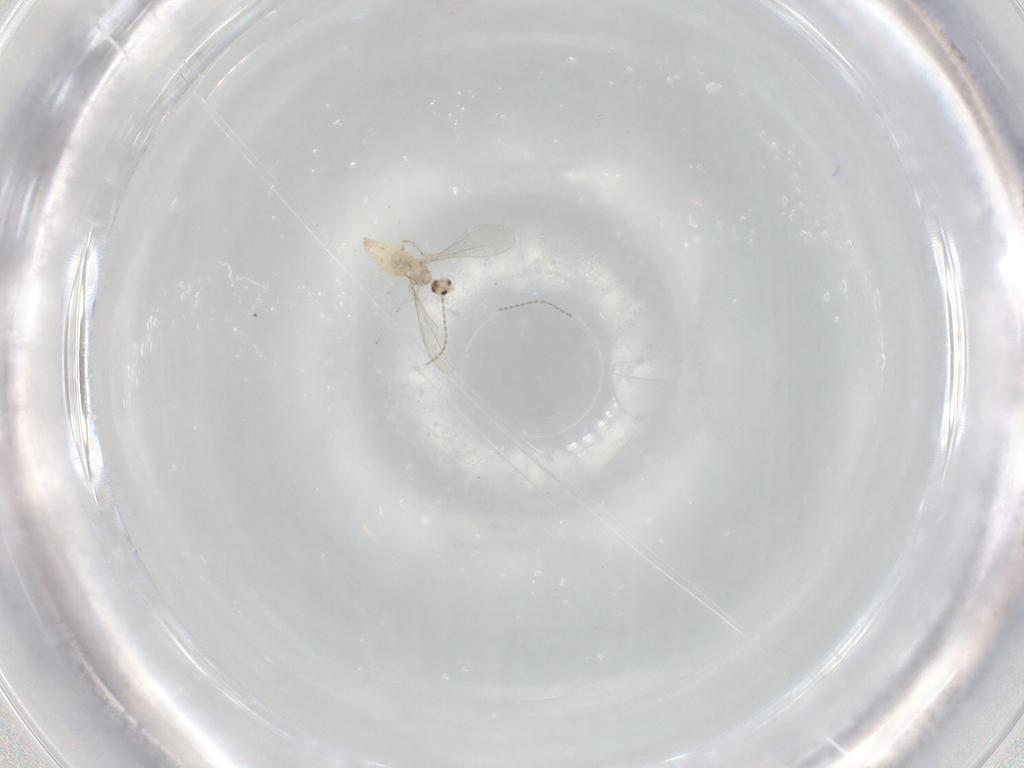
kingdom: Animalia
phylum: Arthropoda
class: Insecta
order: Diptera
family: Cecidomyiidae
